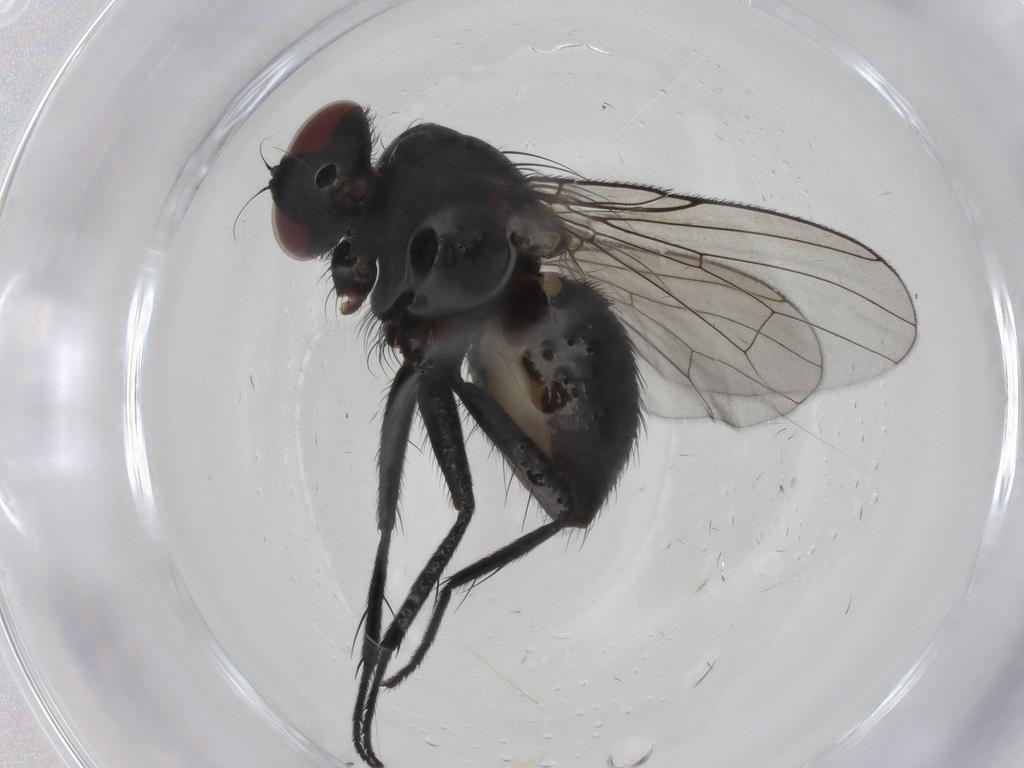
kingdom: Animalia
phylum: Arthropoda
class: Insecta
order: Diptera
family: Muscidae
